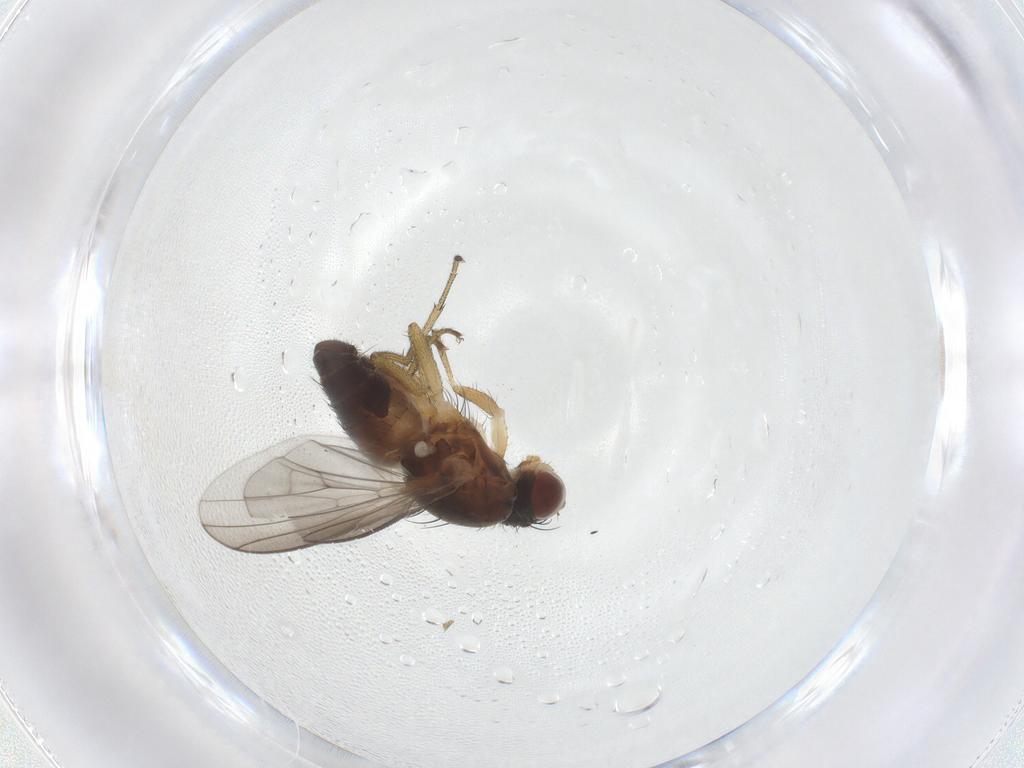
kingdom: Animalia
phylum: Arthropoda
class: Insecta
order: Diptera
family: Heleomyzidae
